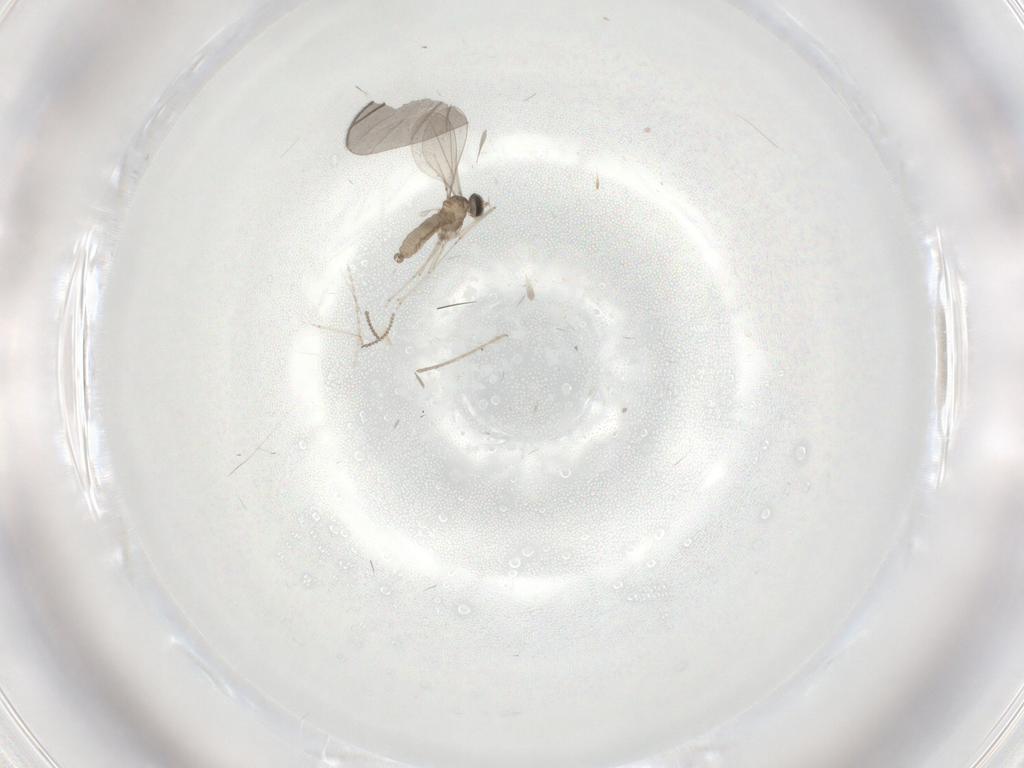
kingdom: Animalia
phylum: Arthropoda
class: Insecta
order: Diptera
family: Cecidomyiidae
